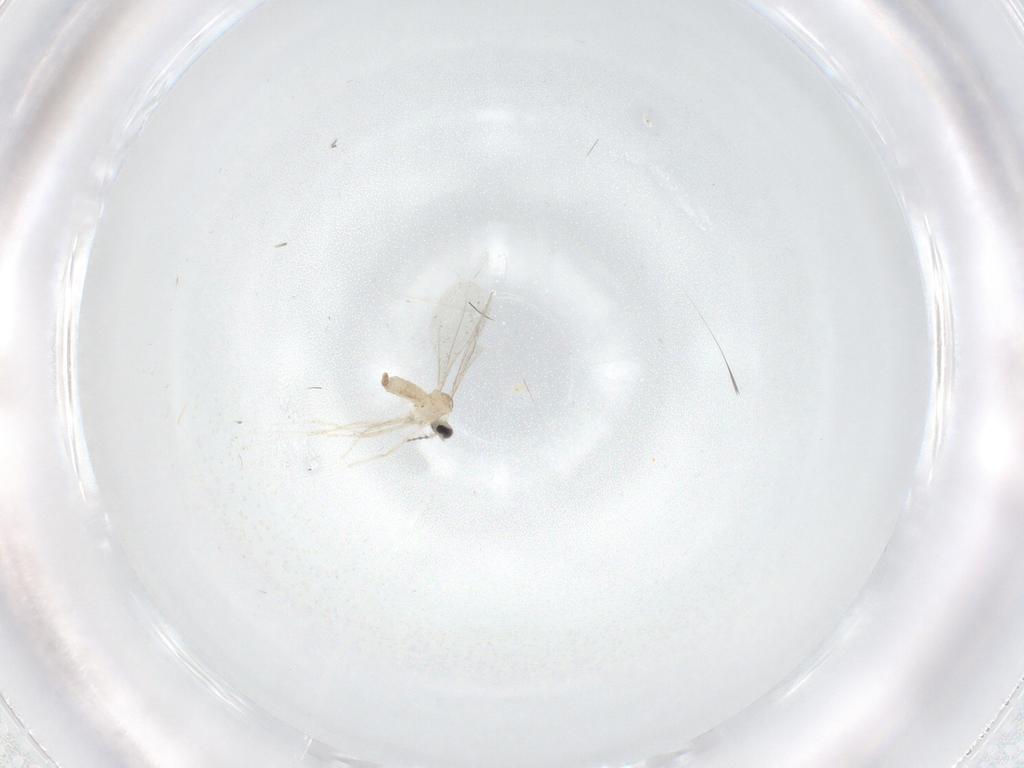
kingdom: Animalia
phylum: Arthropoda
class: Insecta
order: Diptera
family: Cecidomyiidae
